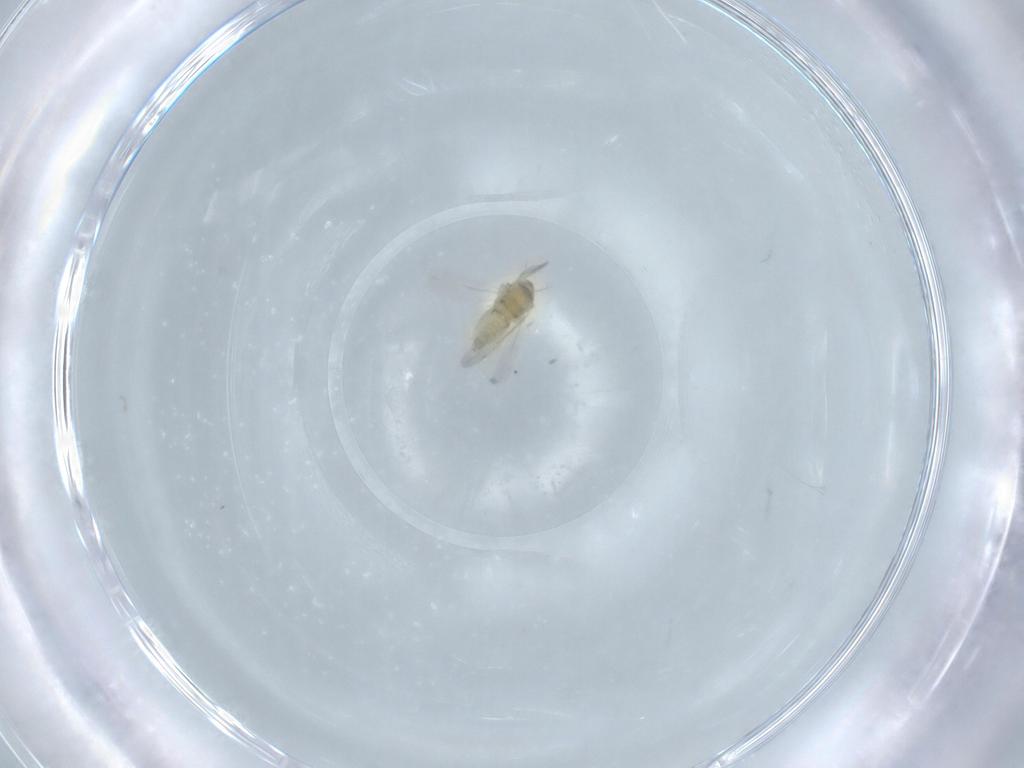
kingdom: Animalia
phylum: Arthropoda
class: Insecta
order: Hemiptera
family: Aleyrodidae
